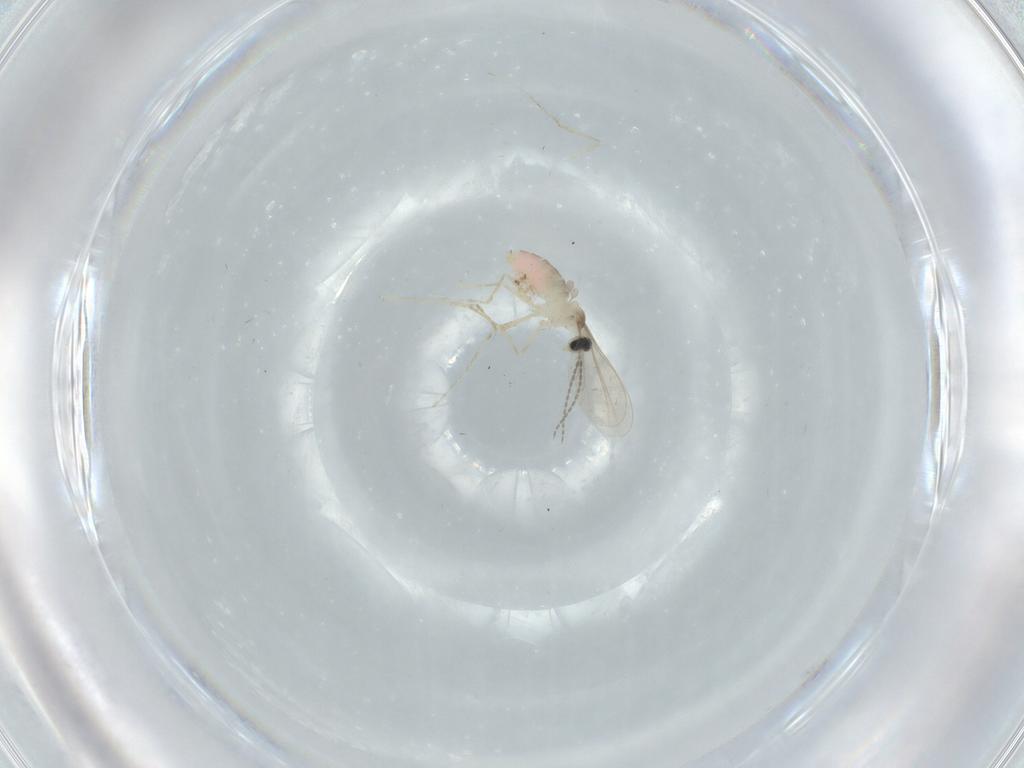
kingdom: Animalia
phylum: Arthropoda
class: Insecta
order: Diptera
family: Cecidomyiidae
